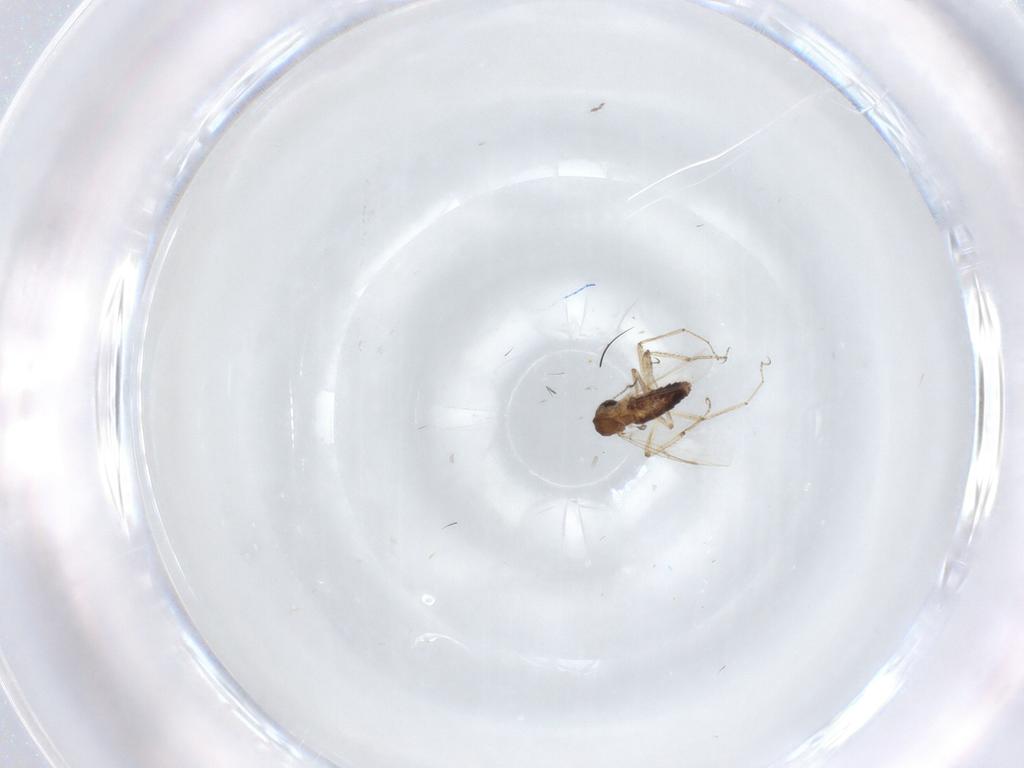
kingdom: Animalia
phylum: Arthropoda
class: Insecta
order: Diptera
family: Ceratopogonidae
